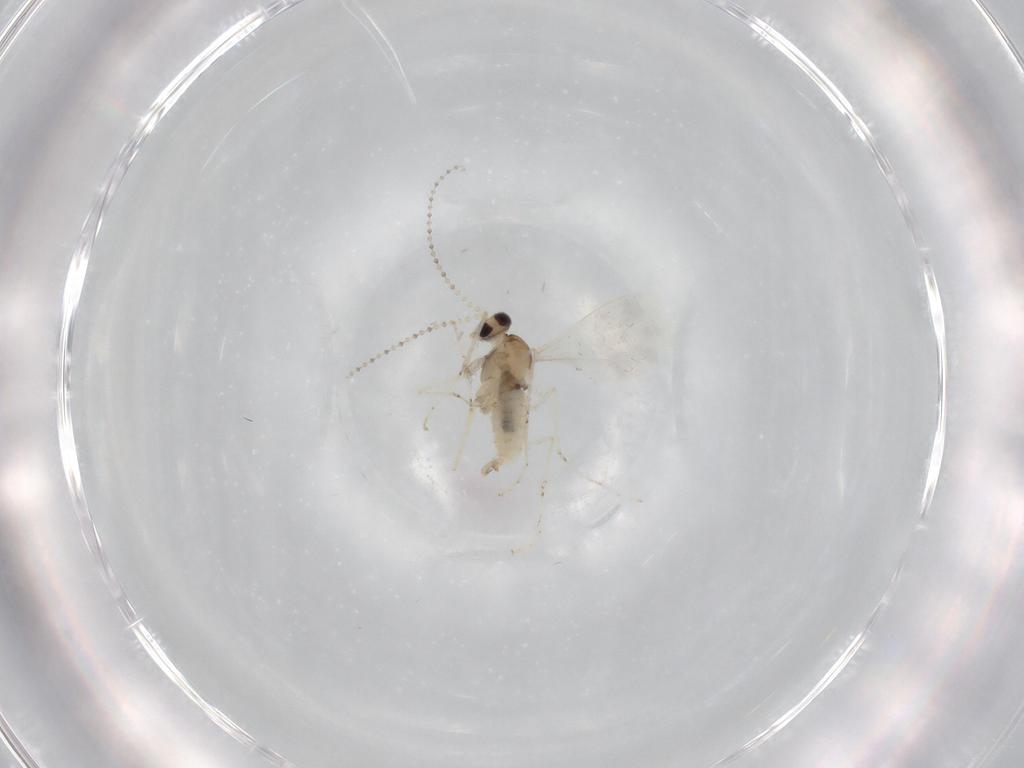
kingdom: Animalia
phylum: Arthropoda
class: Insecta
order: Diptera
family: Cecidomyiidae
